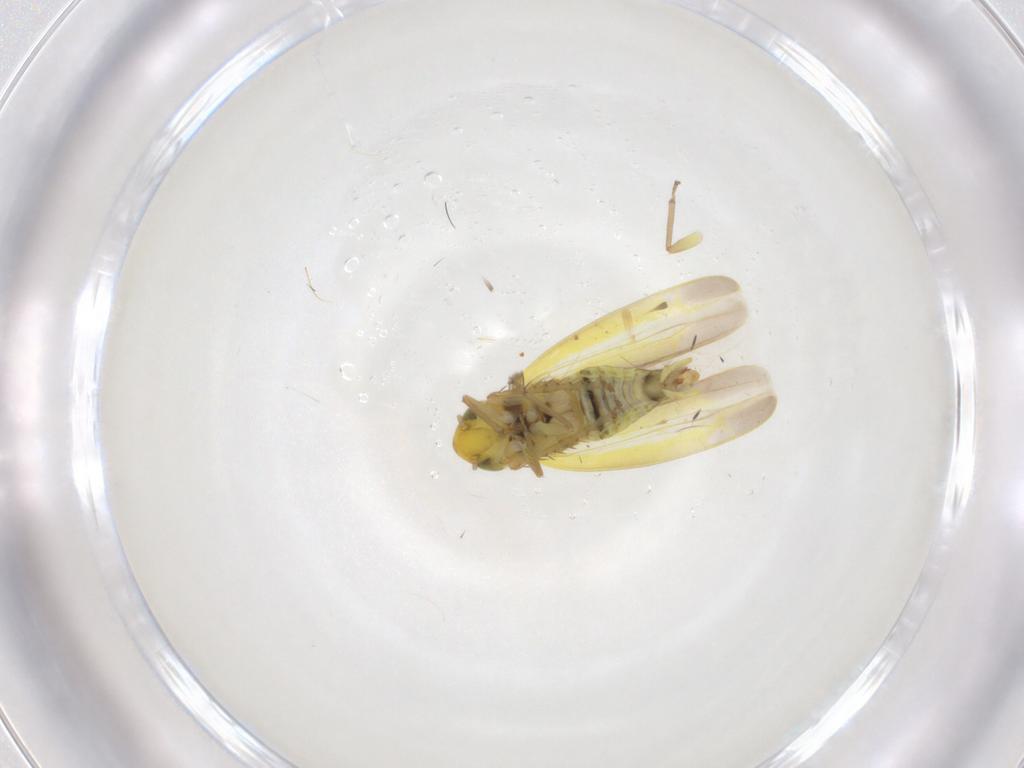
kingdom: Animalia
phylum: Arthropoda
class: Insecta
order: Hemiptera
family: Cicadellidae
